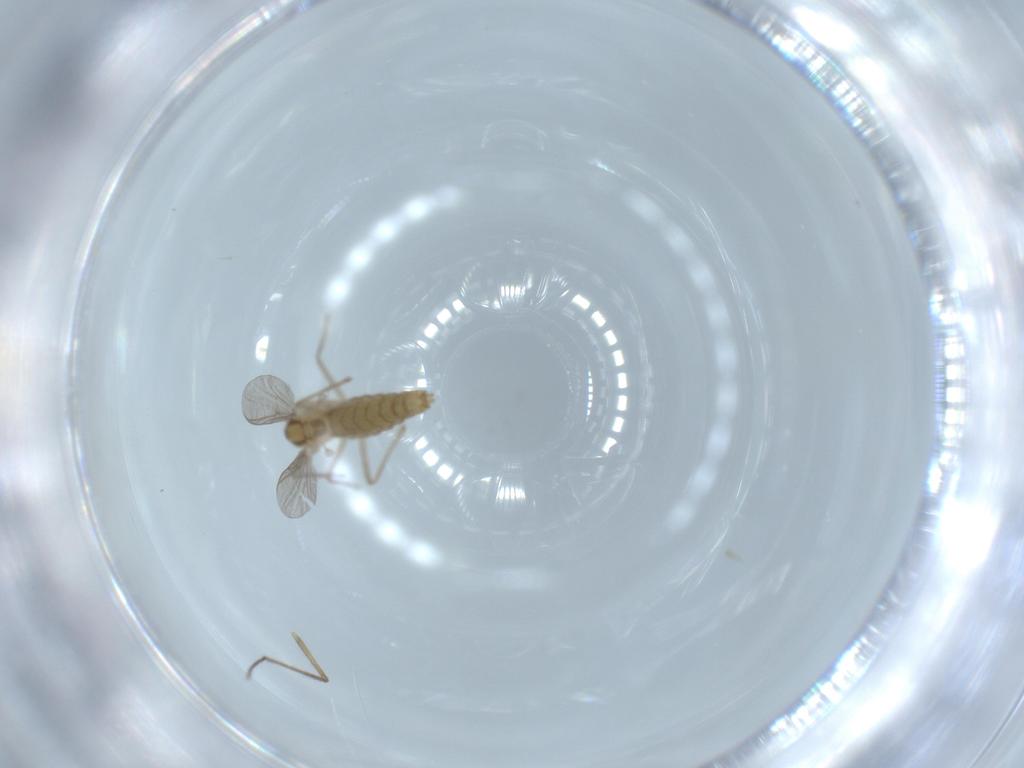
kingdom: Animalia
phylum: Arthropoda
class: Insecta
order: Diptera
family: Chironomidae
